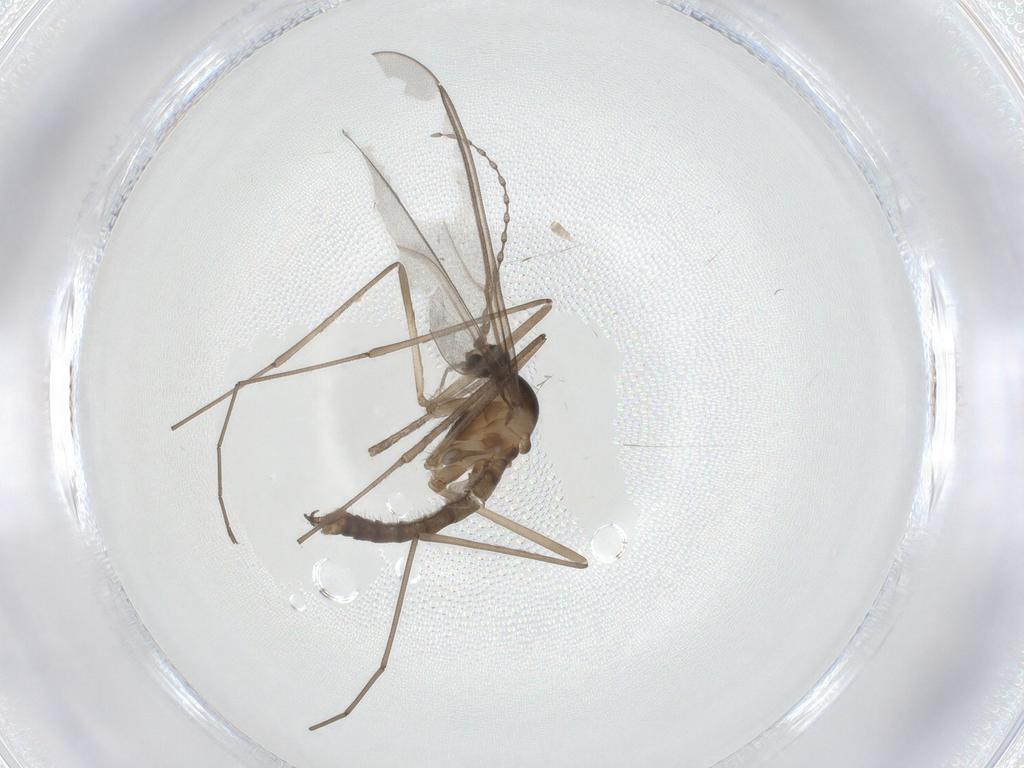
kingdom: Animalia
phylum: Arthropoda
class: Insecta
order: Diptera
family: Cecidomyiidae
